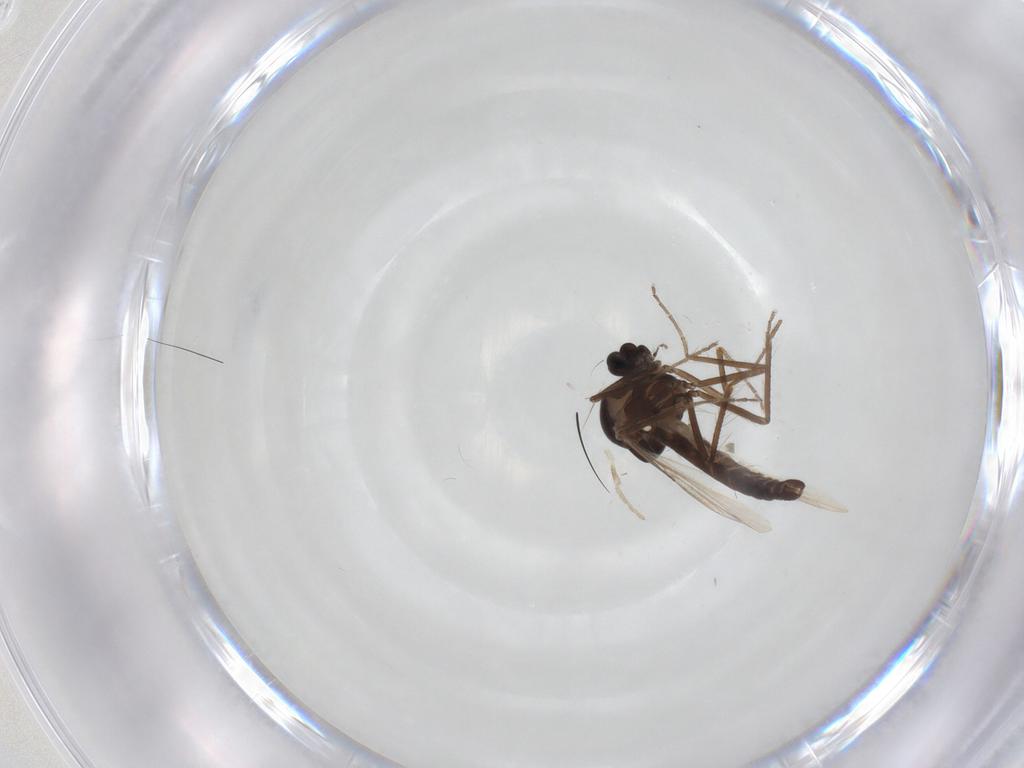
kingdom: Animalia
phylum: Arthropoda
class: Insecta
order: Diptera
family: Ceratopogonidae
